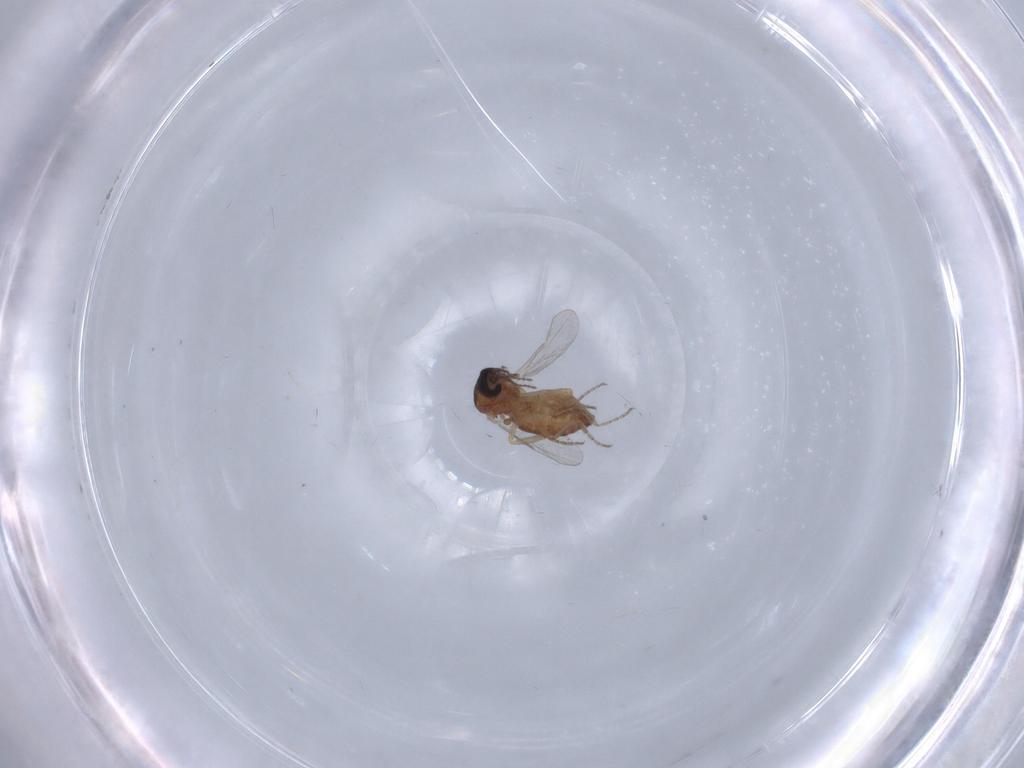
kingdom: Animalia
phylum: Arthropoda
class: Insecta
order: Diptera
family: Ceratopogonidae
